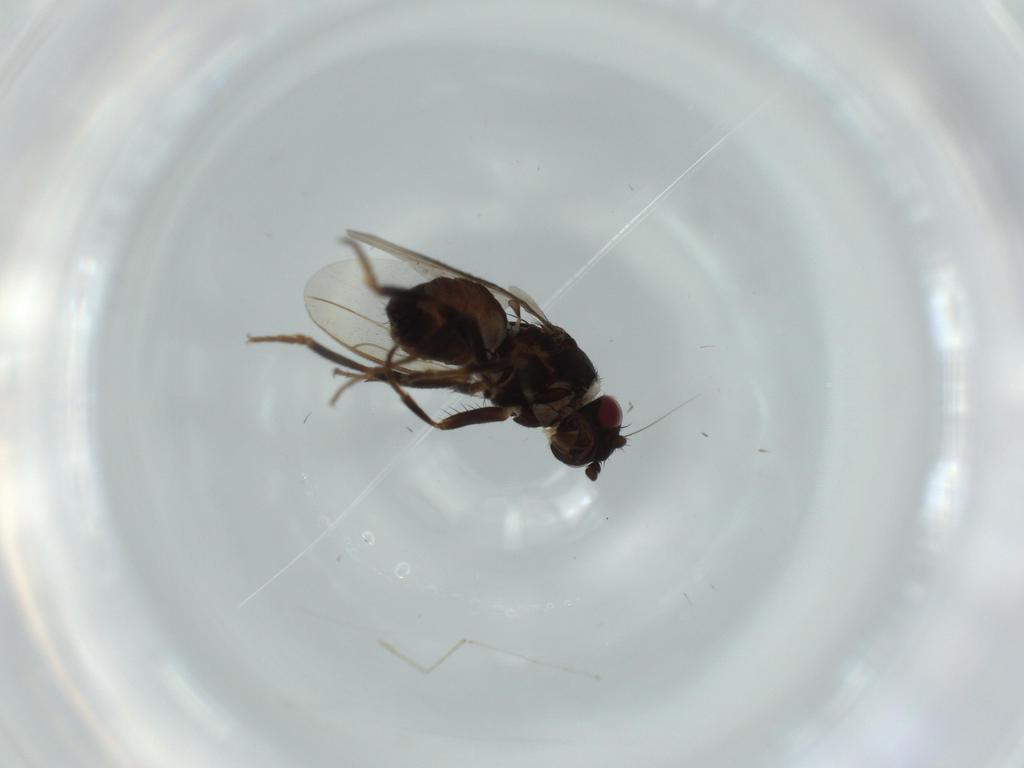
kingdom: Animalia
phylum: Arthropoda
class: Insecta
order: Diptera
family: Sphaeroceridae
